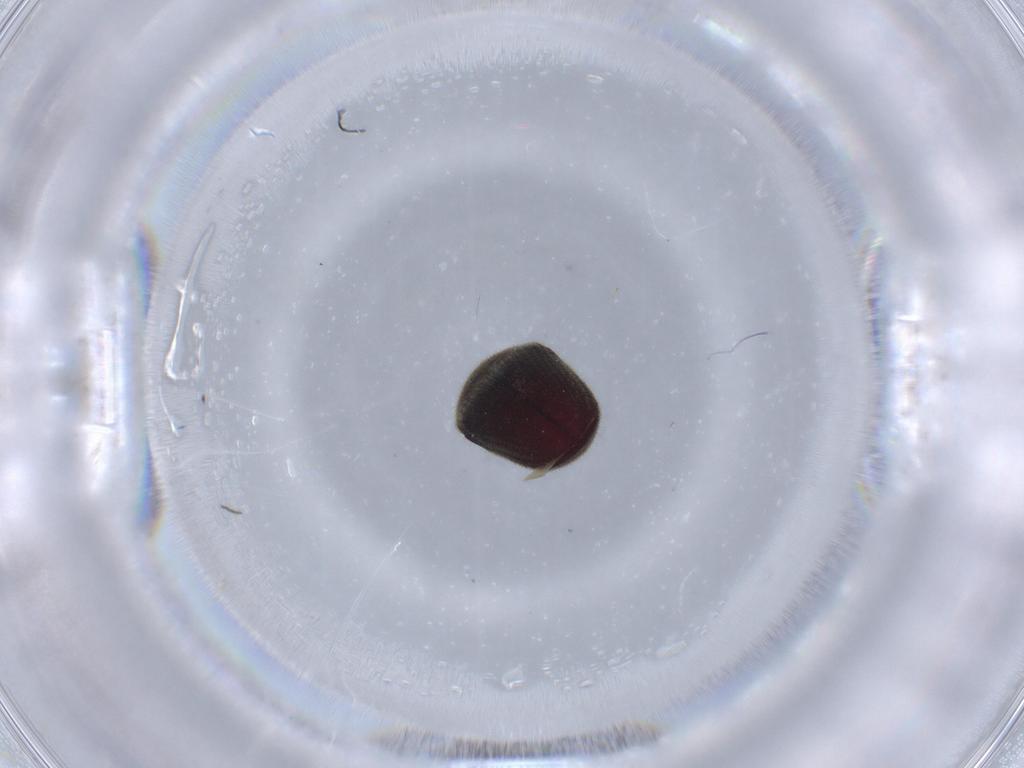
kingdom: Animalia
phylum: Arthropoda
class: Insecta
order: Coleoptera
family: Throscidae
